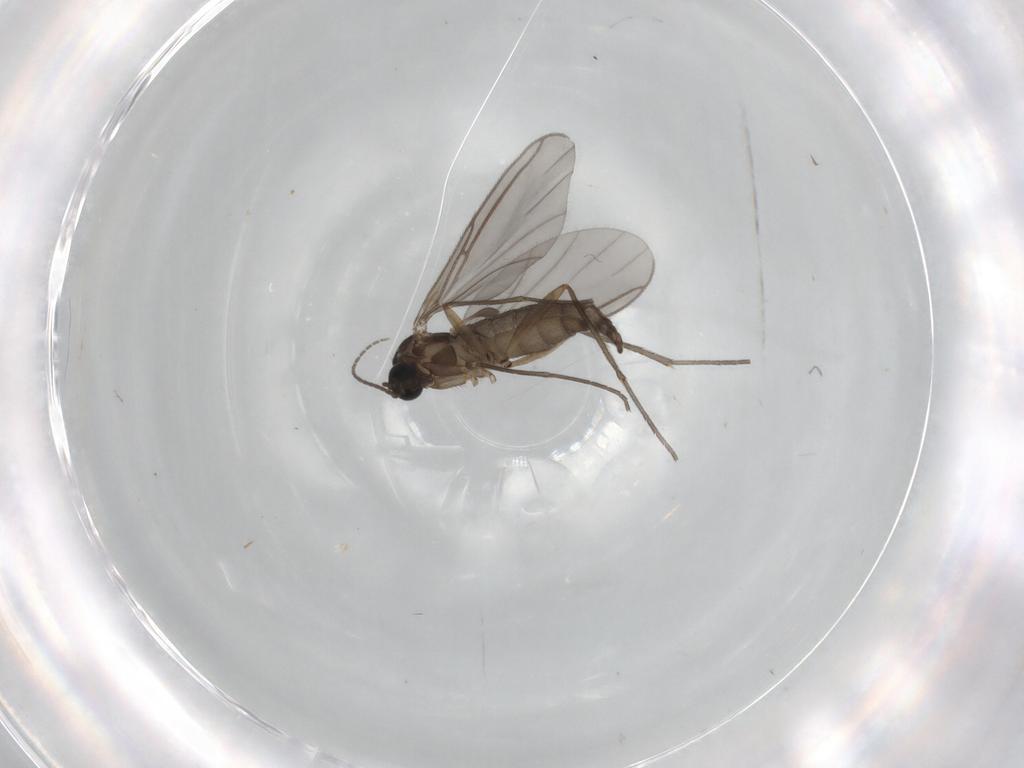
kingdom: Animalia
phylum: Arthropoda
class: Insecta
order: Diptera
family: Sciaridae
